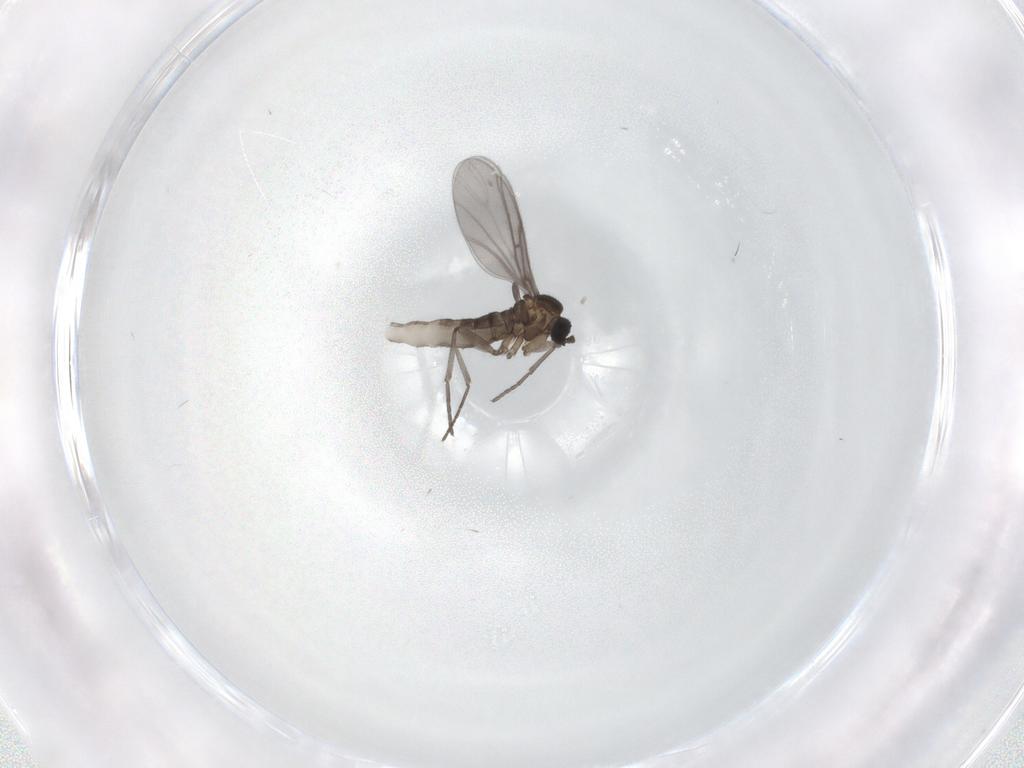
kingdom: Animalia
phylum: Arthropoda
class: Insecta
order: Diptera
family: Sciaridae
